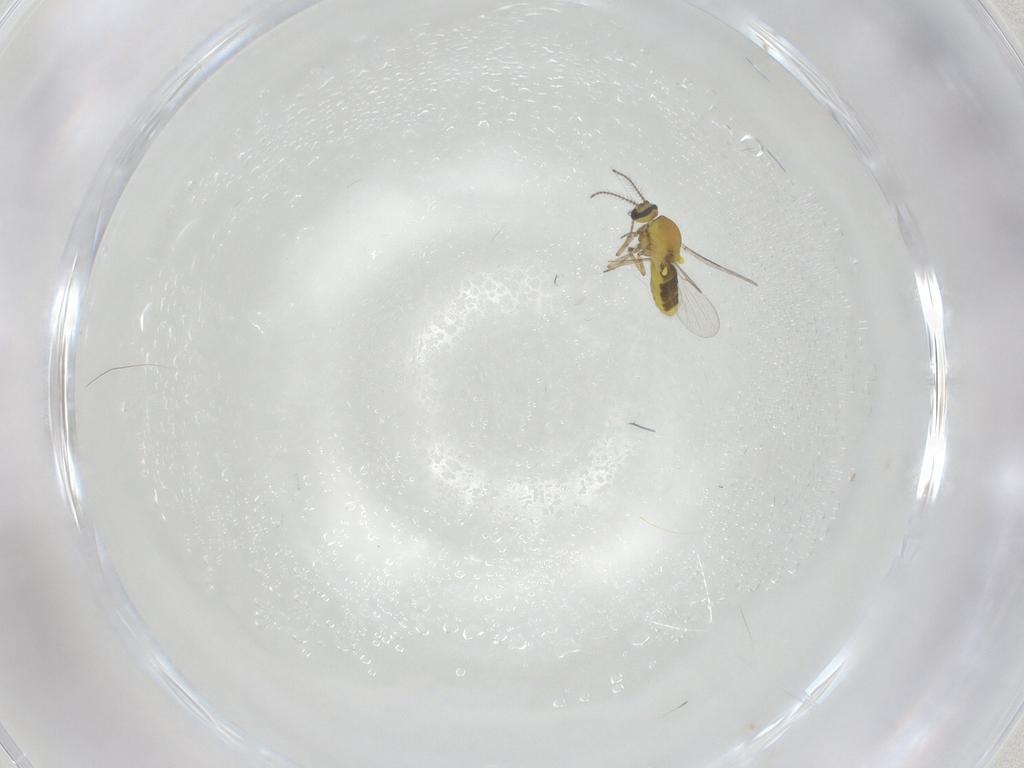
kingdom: Animalia
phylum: Arthropoda
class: Insecta
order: Diptera
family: Ceratopogonidae
